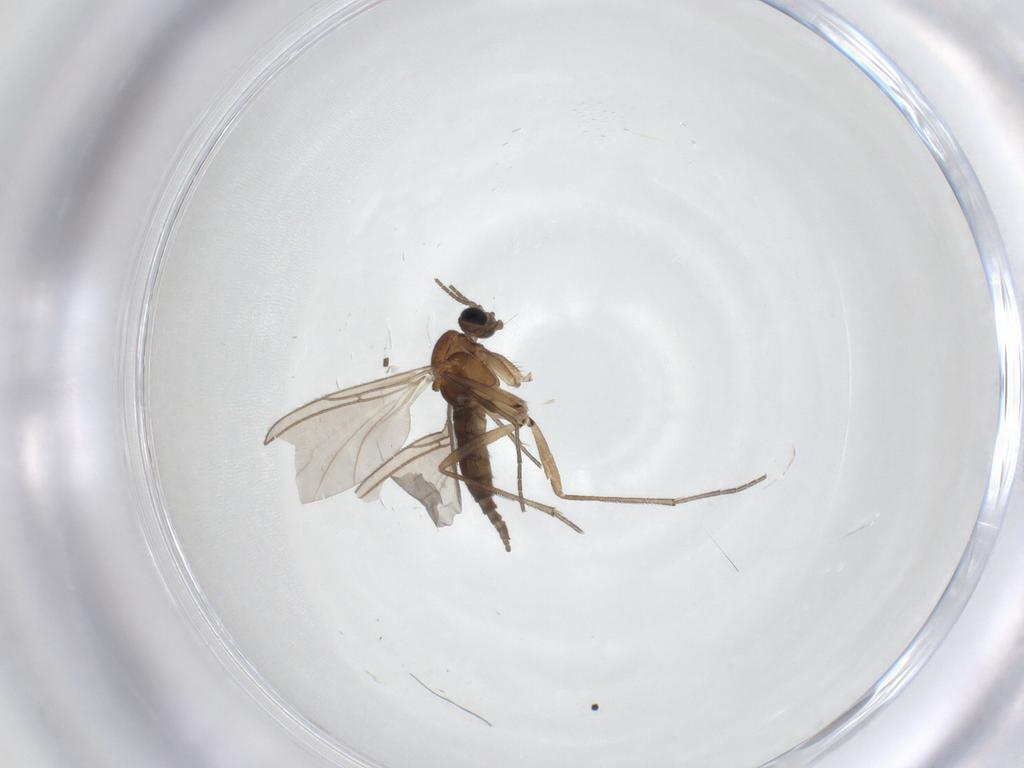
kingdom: Animalia
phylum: Arthropoda
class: Insecta
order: Diptera
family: Sciaridae
